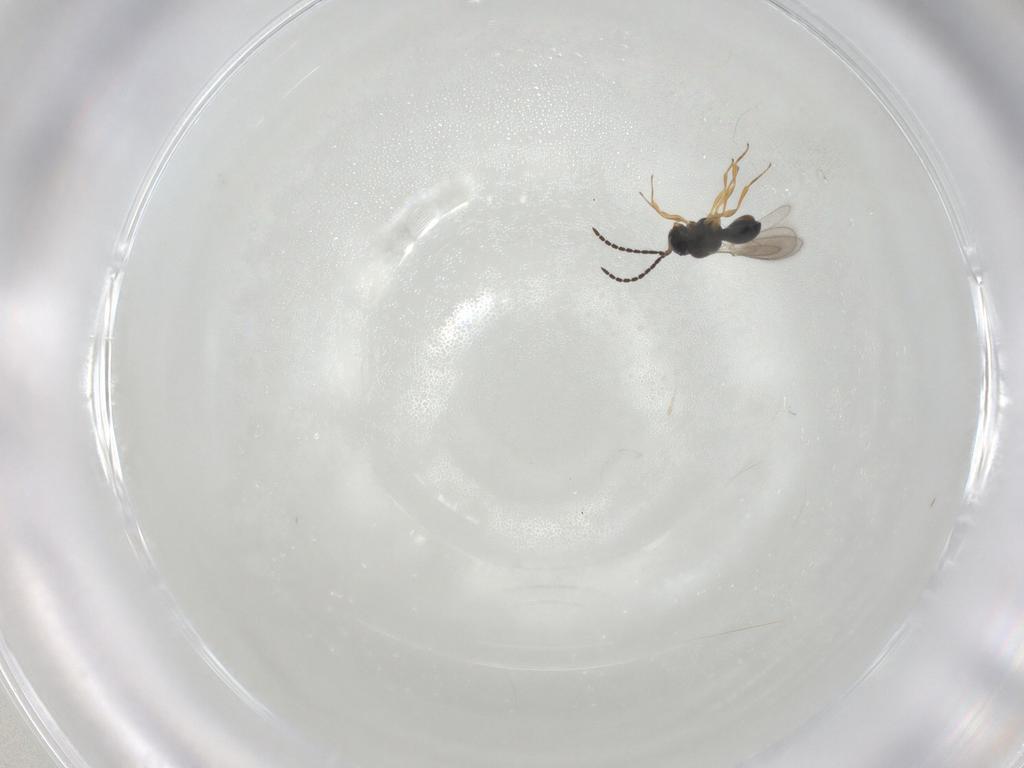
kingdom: Animalia
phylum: Arthropoda
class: Insecta
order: Hymenoptera
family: Scelionidae
